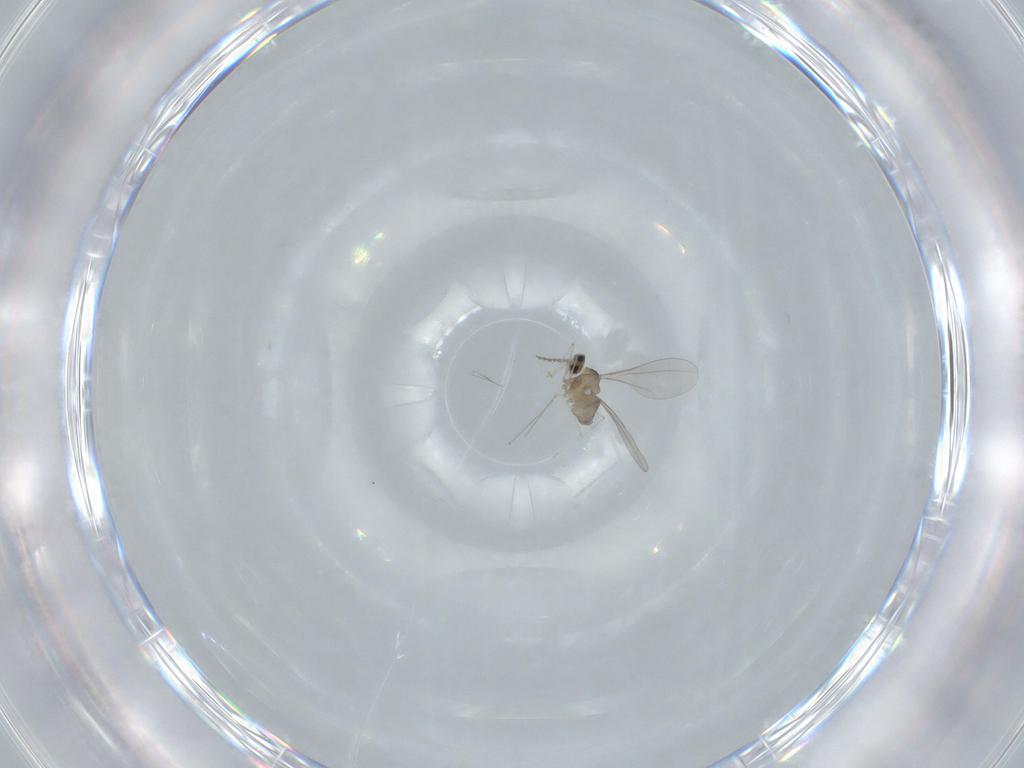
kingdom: Animalia
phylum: Arthropoda
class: Insecta
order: Diptera
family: Cecidomyiidae
